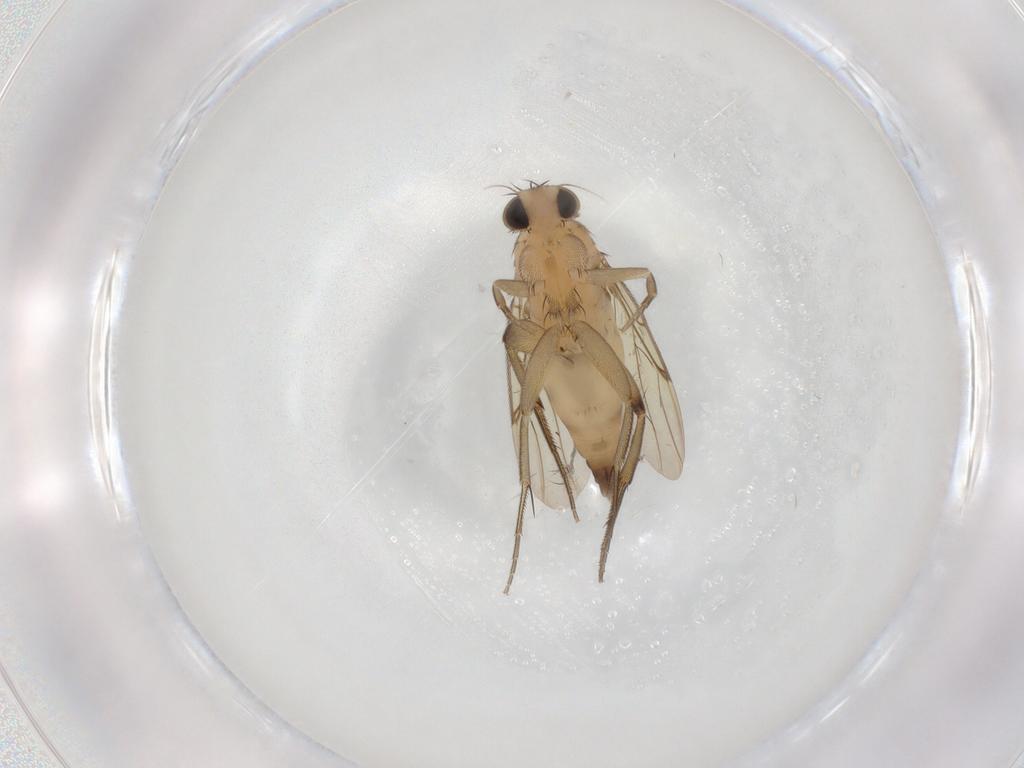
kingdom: Animalia
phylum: Arthropoda
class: Insecta
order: Diptera
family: Phoridae
